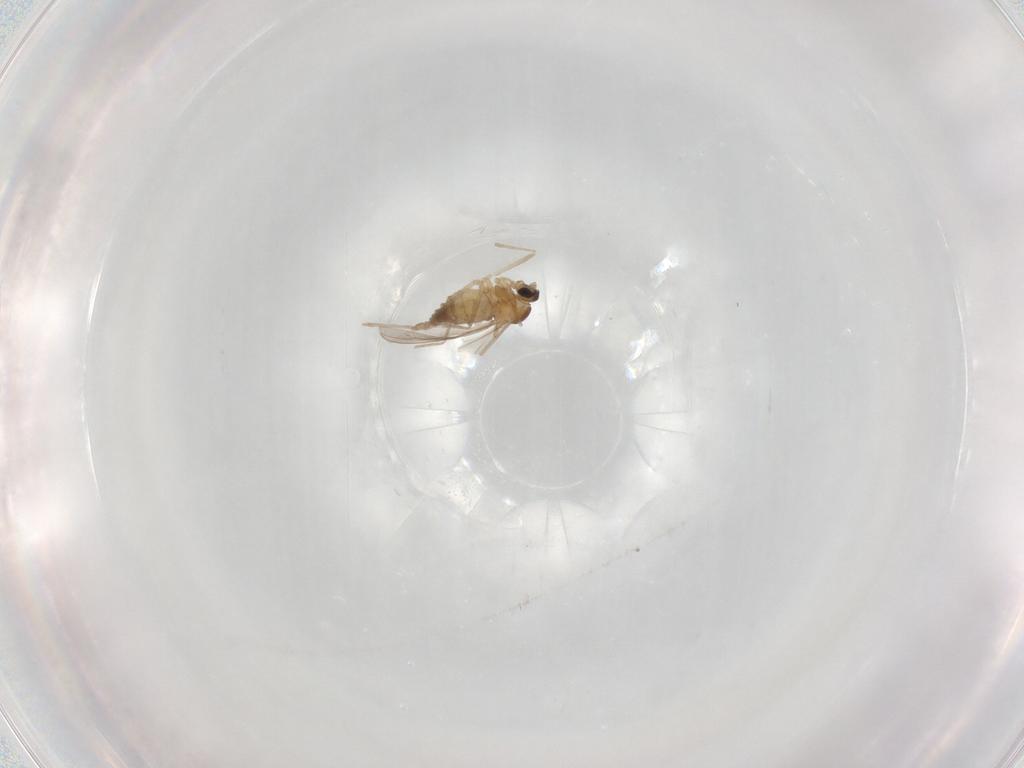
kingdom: Animalia
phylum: Arthropoda
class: Insecta
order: Diptera
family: Cecidomyiidae
